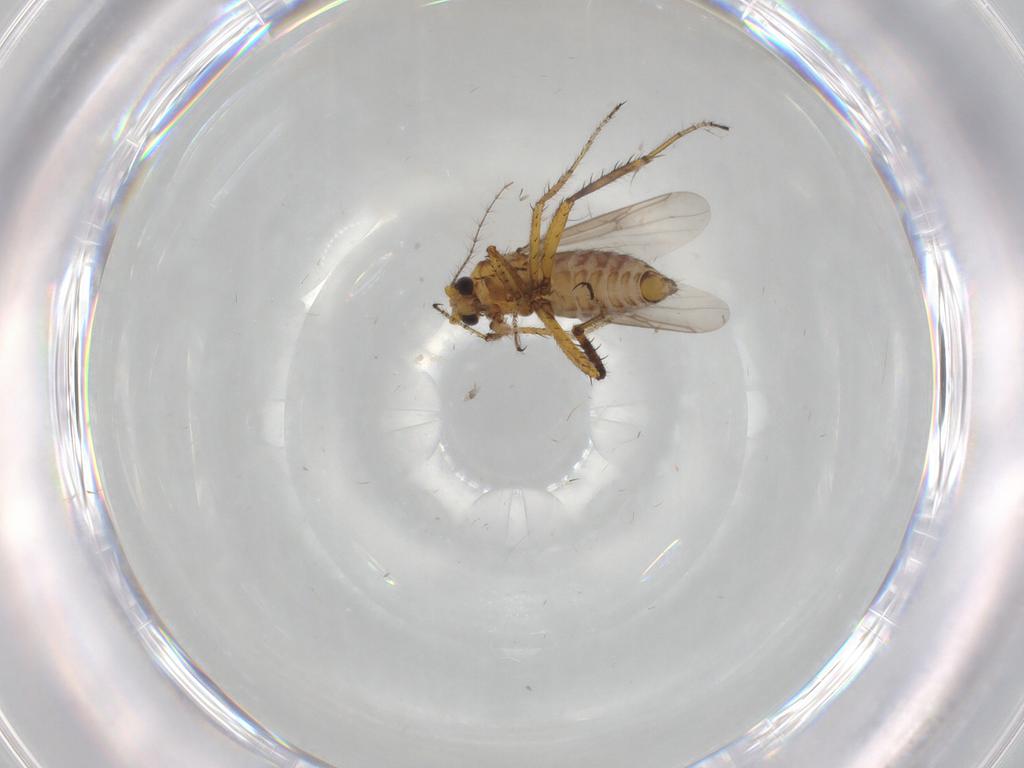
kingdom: Animalia
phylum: Arthropoda
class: Insecta
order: Diptera
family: Ceratopogonidae
